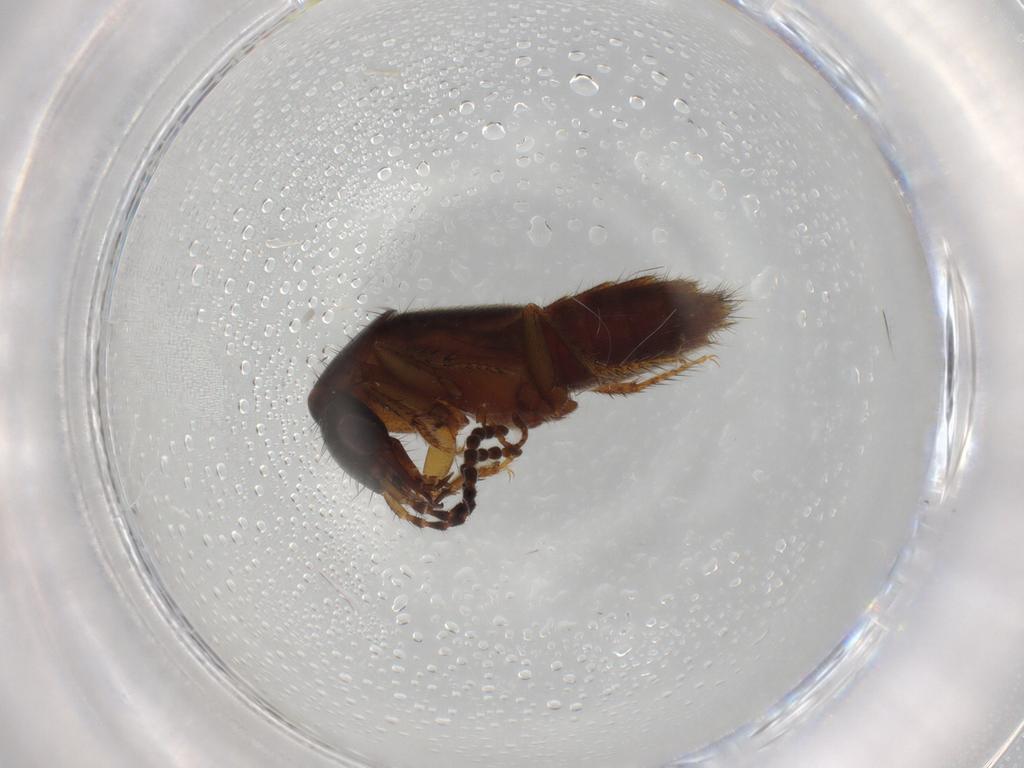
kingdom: Animalia
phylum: Arthropoda
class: Insecta
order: Coleoptera
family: Staphylinidae
